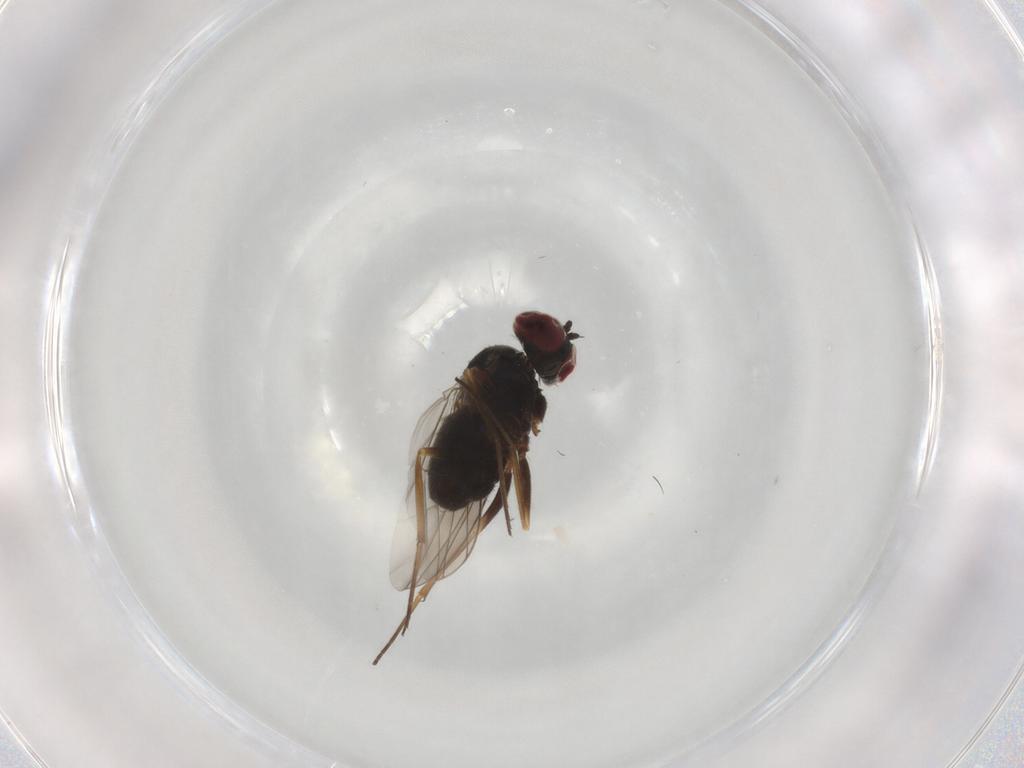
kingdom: Animalia
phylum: Arthropoda
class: Insecta
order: Diptera
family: Dolichopodidae
